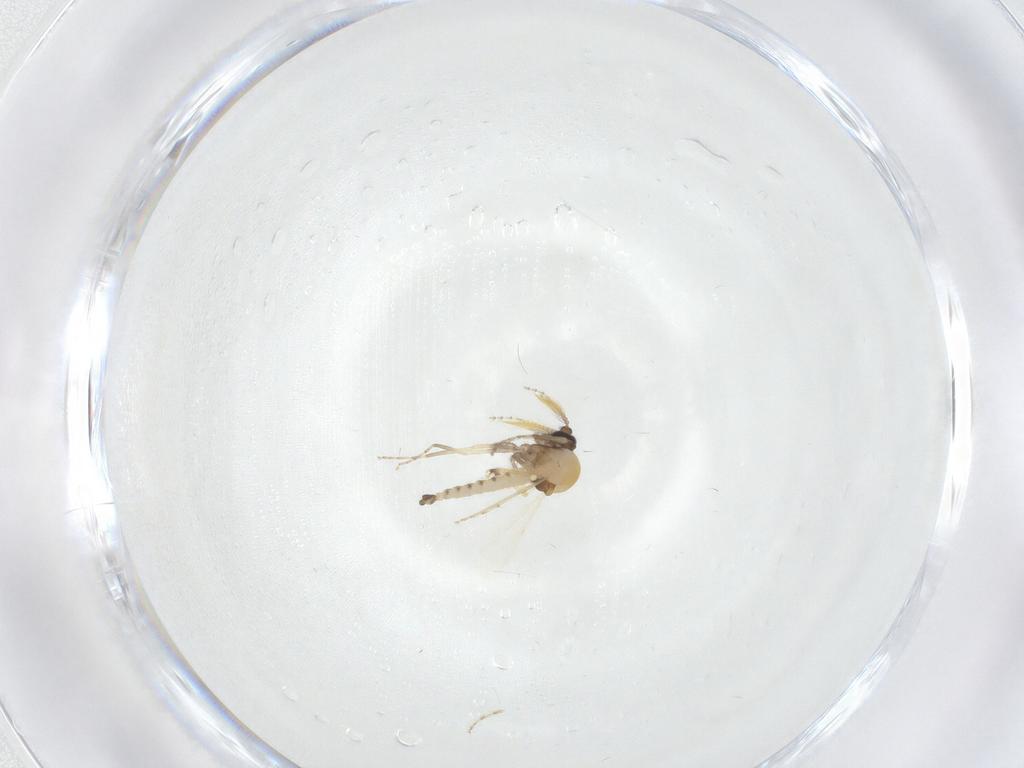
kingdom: Animalia
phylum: Arthropoda
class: Insecta
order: Diptera
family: Ceratopogonidae
